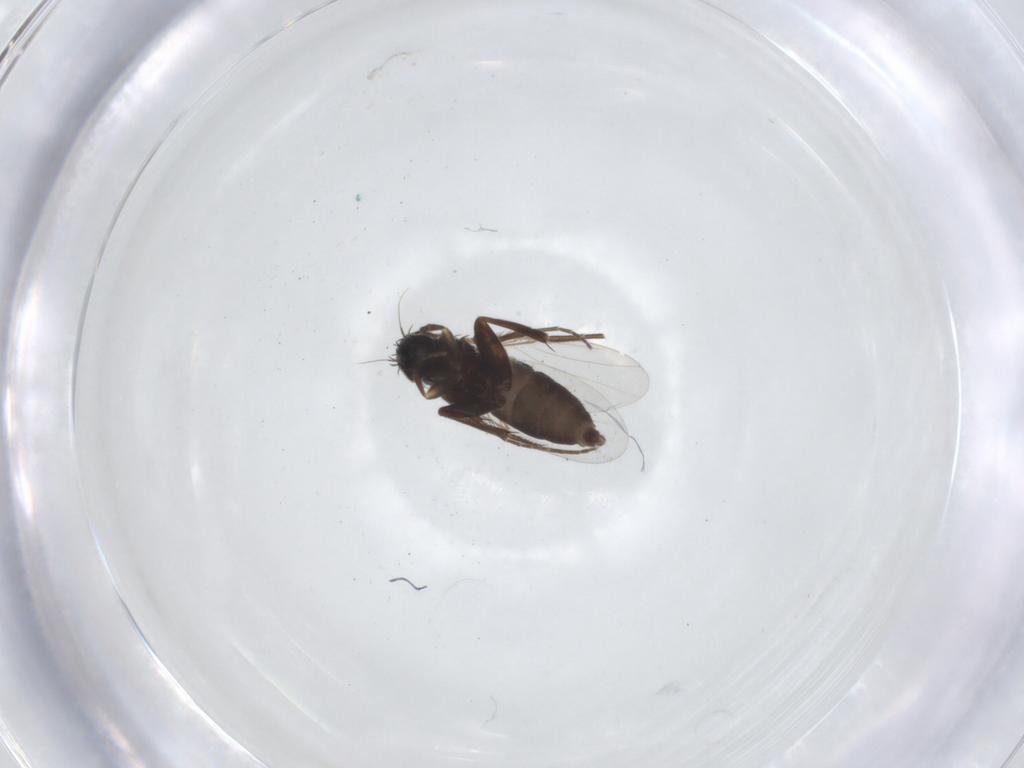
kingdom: Animalia
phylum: Arthropoda
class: Insecta
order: Diptera
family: Phoridae
